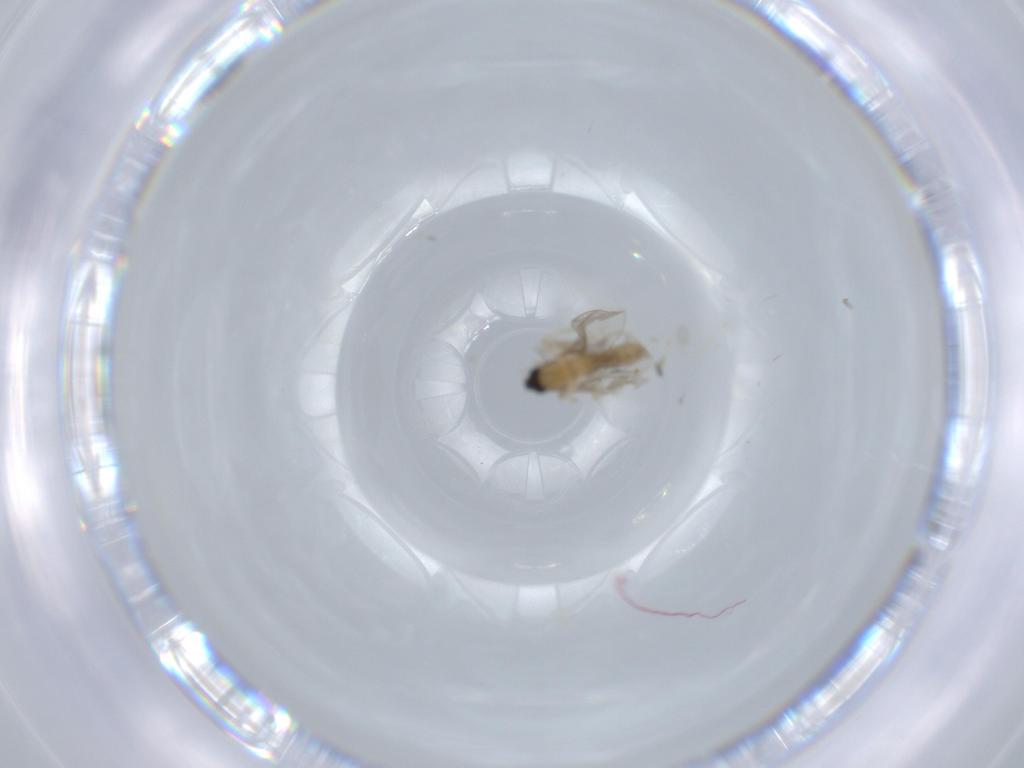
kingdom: Animalia
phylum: Arthropoda
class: Insecta
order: Diptera
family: Cecidomyiidae
